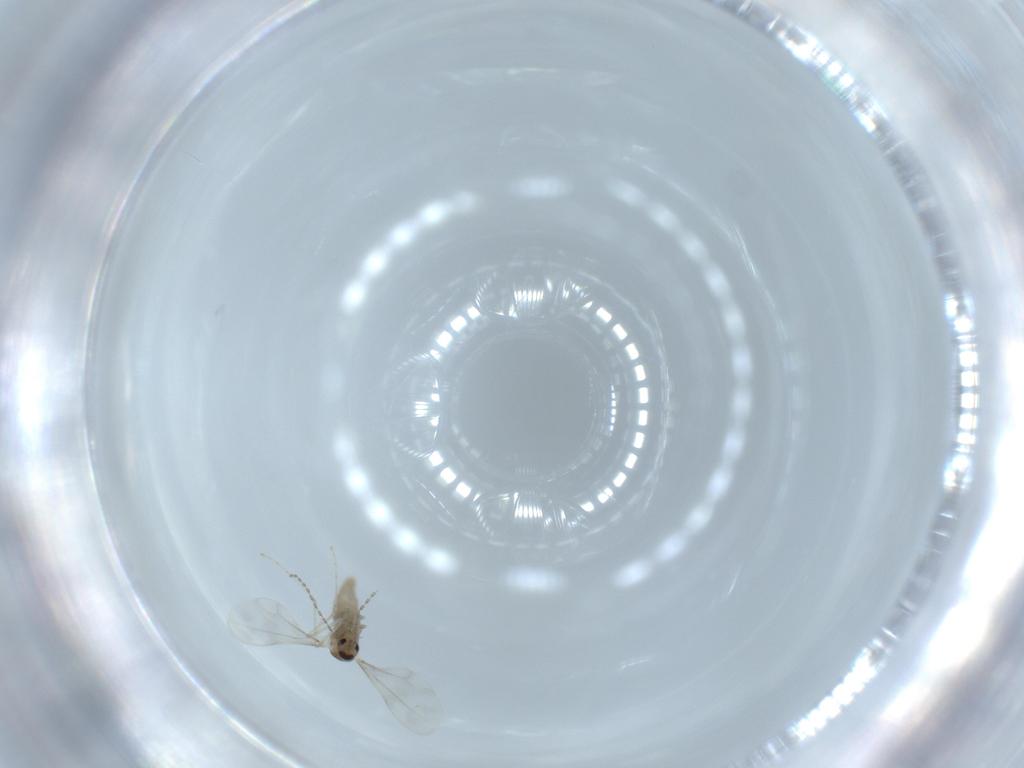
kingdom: Animalia
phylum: Arthropoda
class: Insecta
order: Diptera
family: Cecidomyiidae
